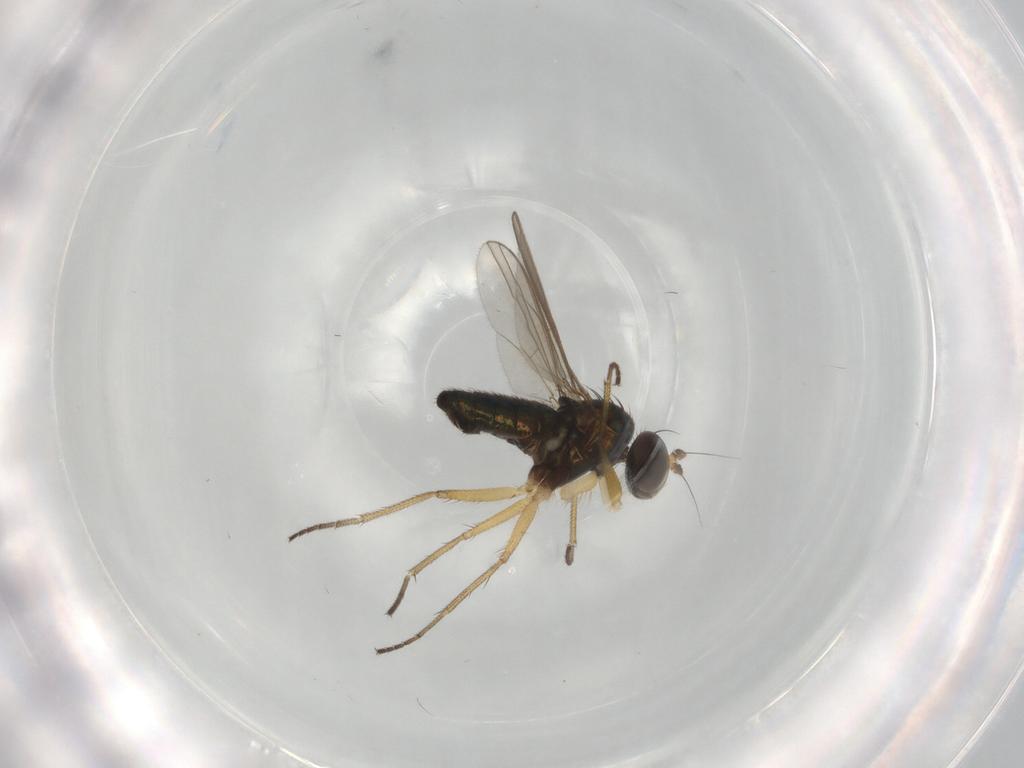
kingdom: Animalia
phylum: Arthropoda
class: Insecta
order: Diptera
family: Dolichopodidae
